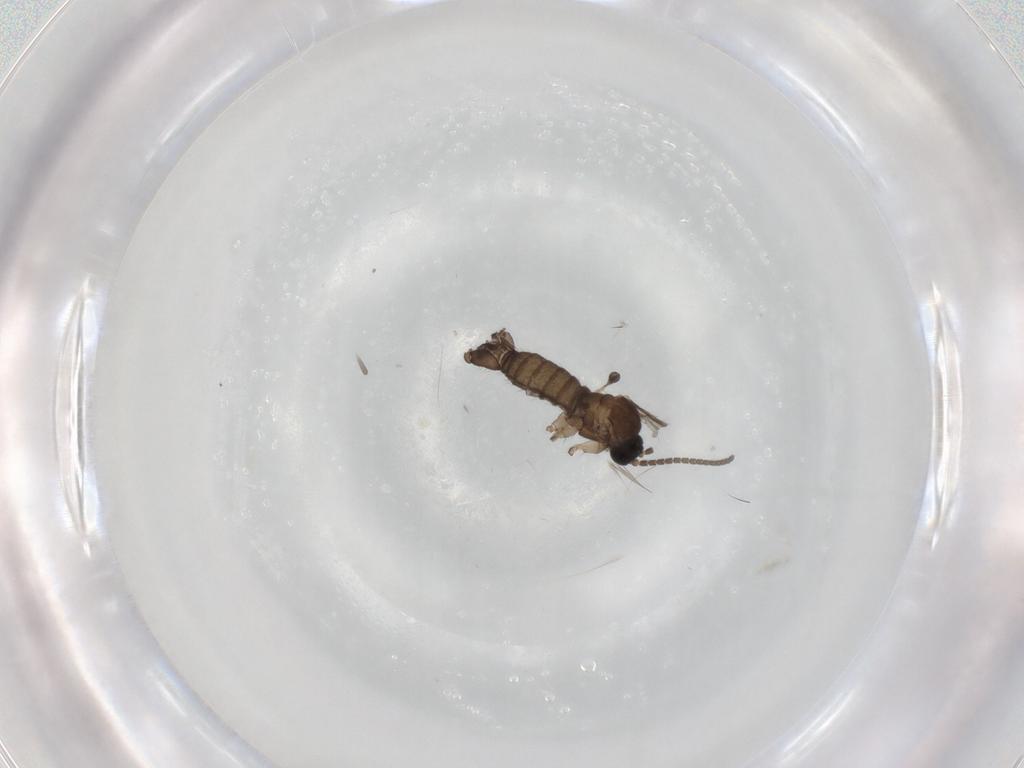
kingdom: Animalia
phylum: Arthropoda
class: Insecta
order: Diptera
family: Sciaridae
